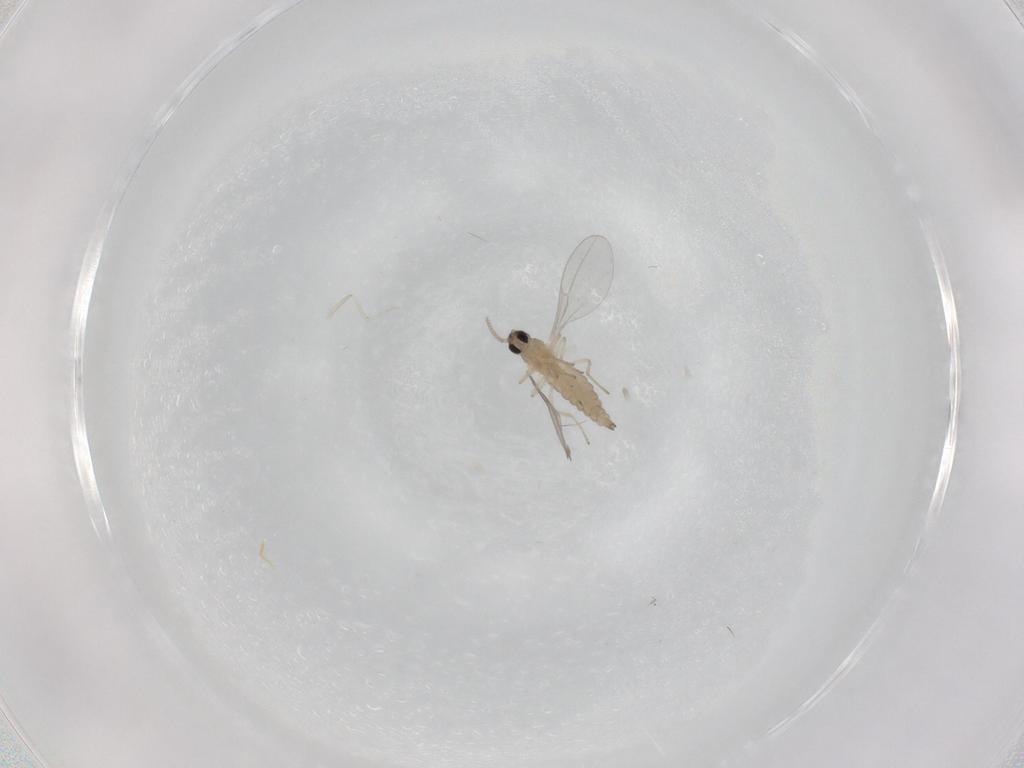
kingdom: Animalia
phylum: Arthropoda
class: Insecta
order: Diptera
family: Cecidomyiidae
